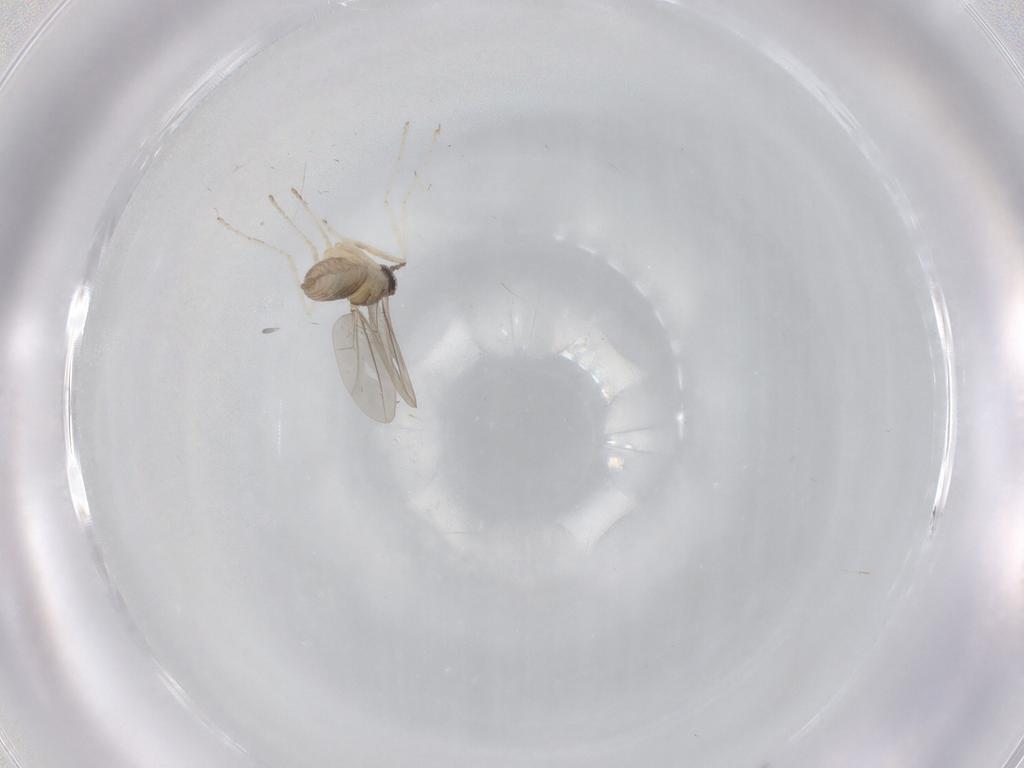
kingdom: Animalia
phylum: Arthropoda
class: Insecta
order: Diptera
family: Cecidomyiidae
